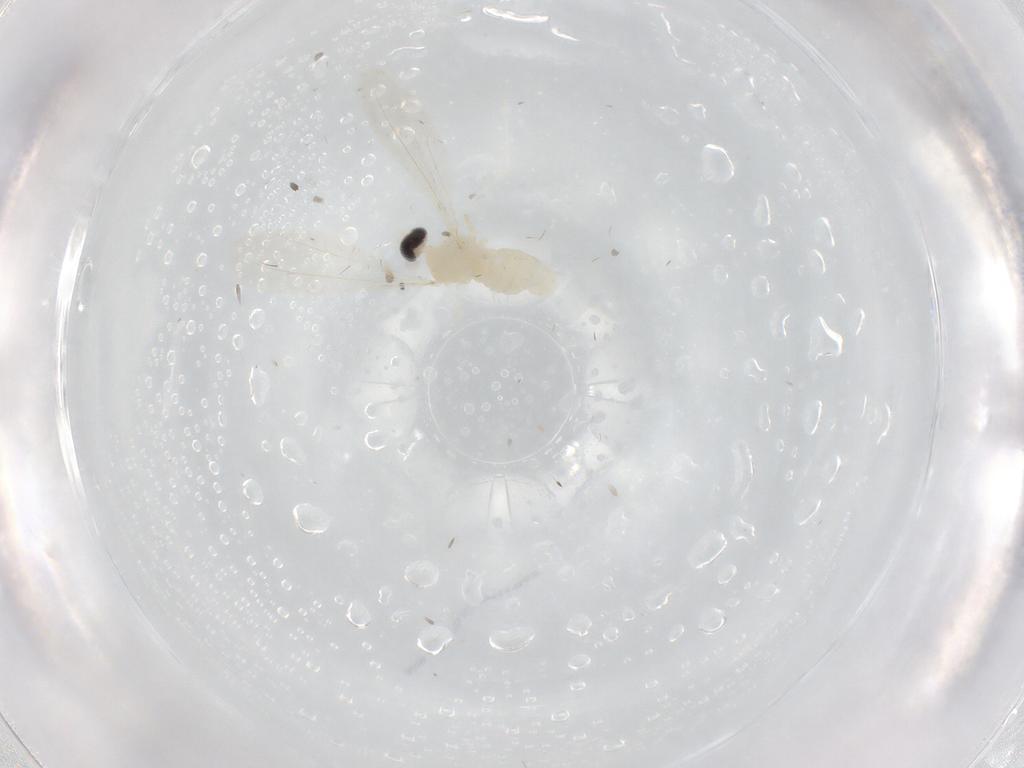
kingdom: Animalia
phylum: Arthropoda
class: Insecta
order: Diptera
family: Cecidomyiidae
